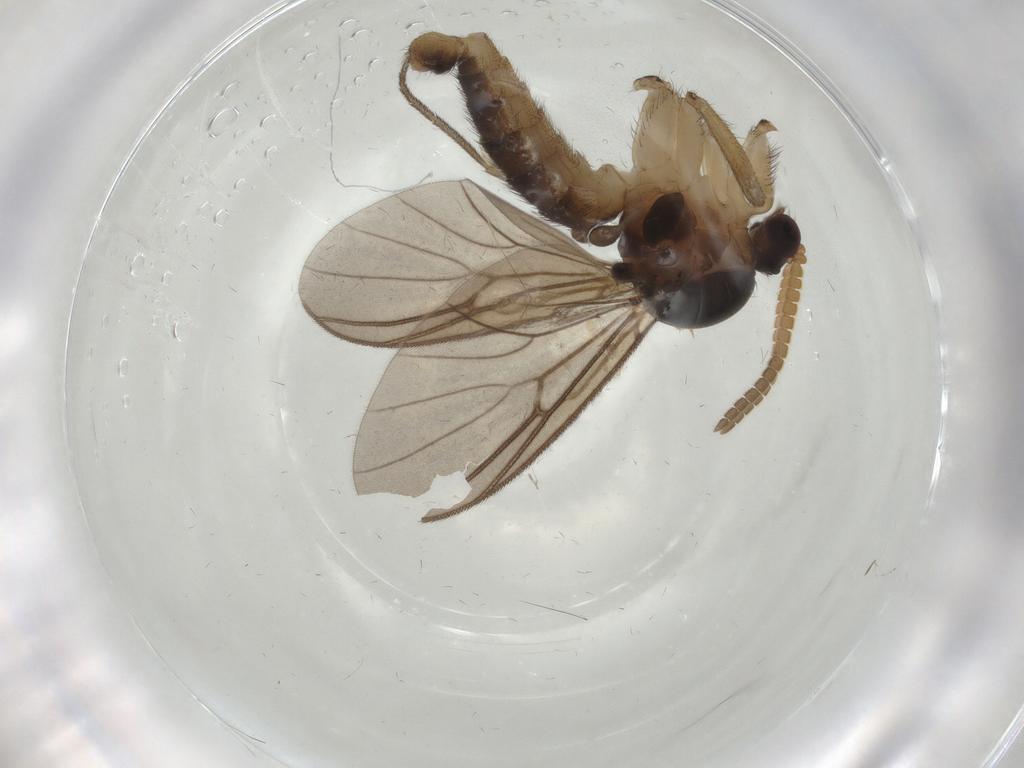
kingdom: Animalia
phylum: Arthropoda
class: Insecta
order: Diptera
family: Mycetophilidae
